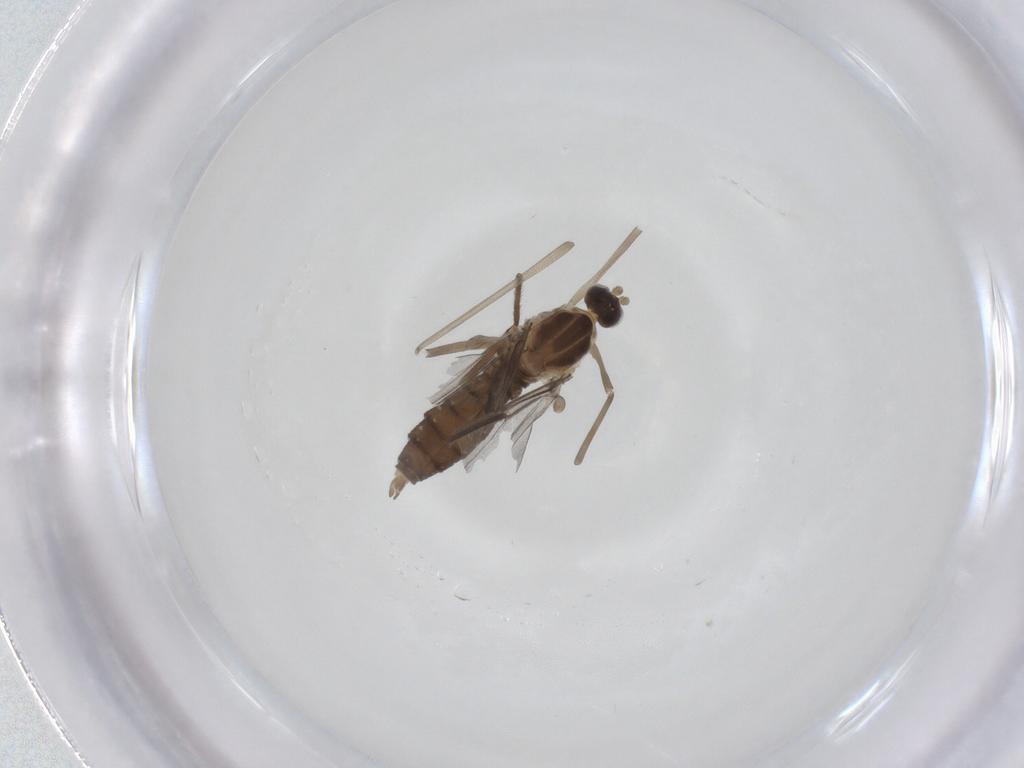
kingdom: Animalia
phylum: Arthropoda
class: Insecta
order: Diptera
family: Cecidomyiidae
